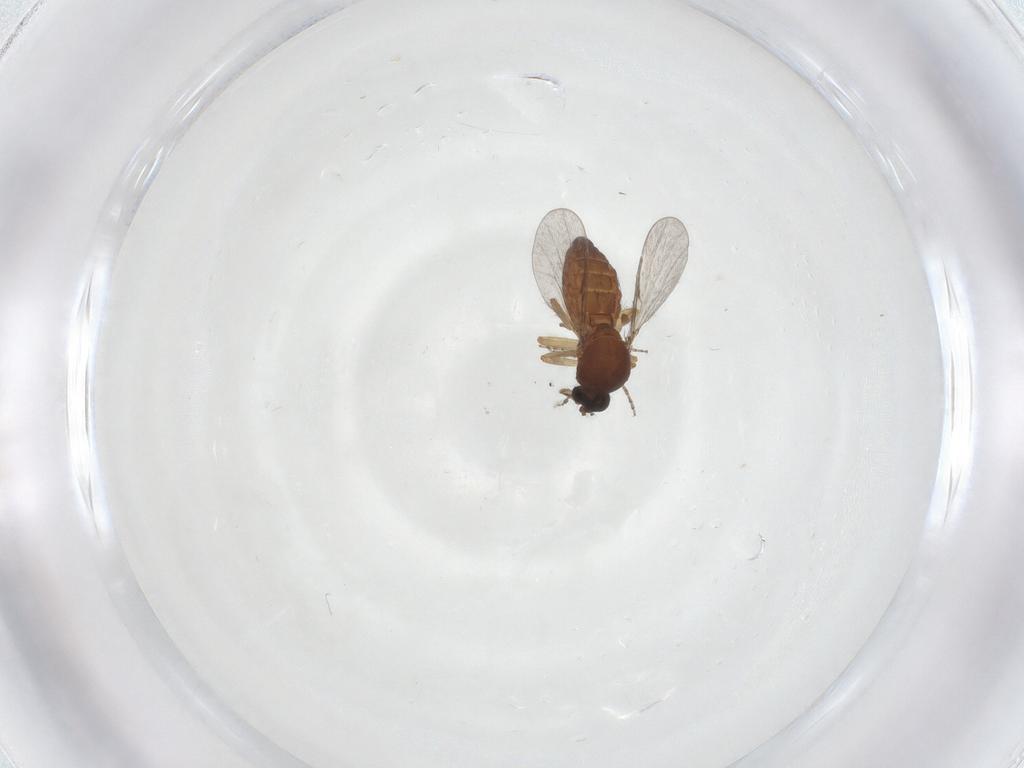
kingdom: Animalia
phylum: Arthropoda
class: Insecta
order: Diptera
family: Ceratopogonidae
